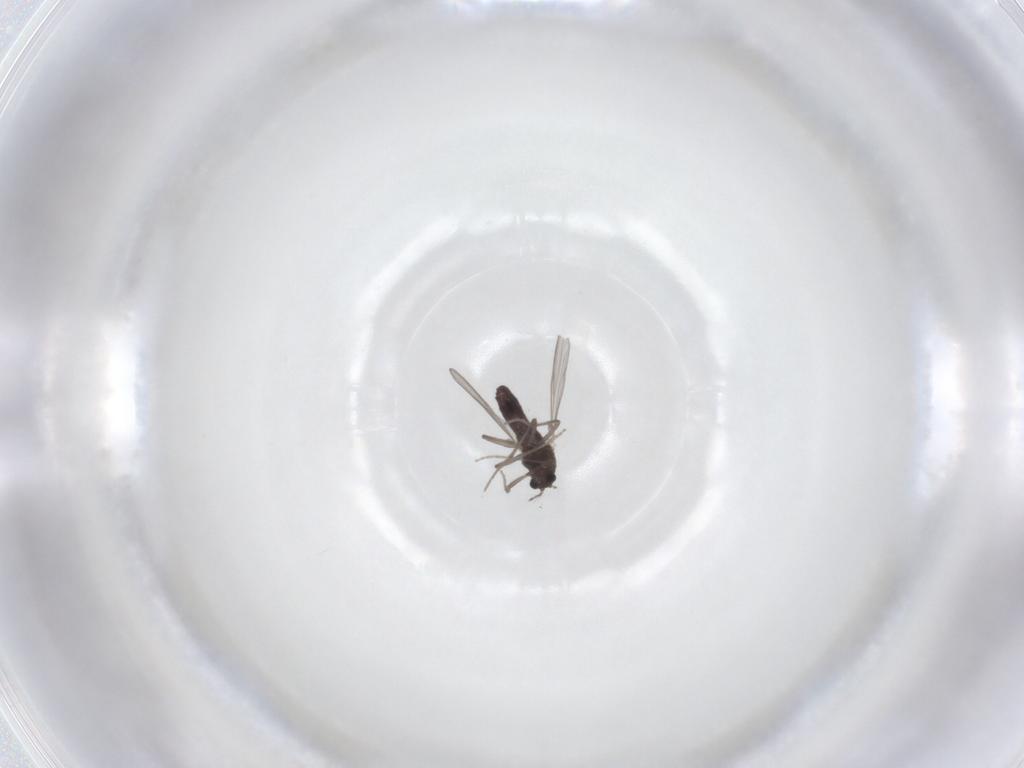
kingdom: Animalia
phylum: Arthropoda
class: Insecta
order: Diptera
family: Chironomidae
